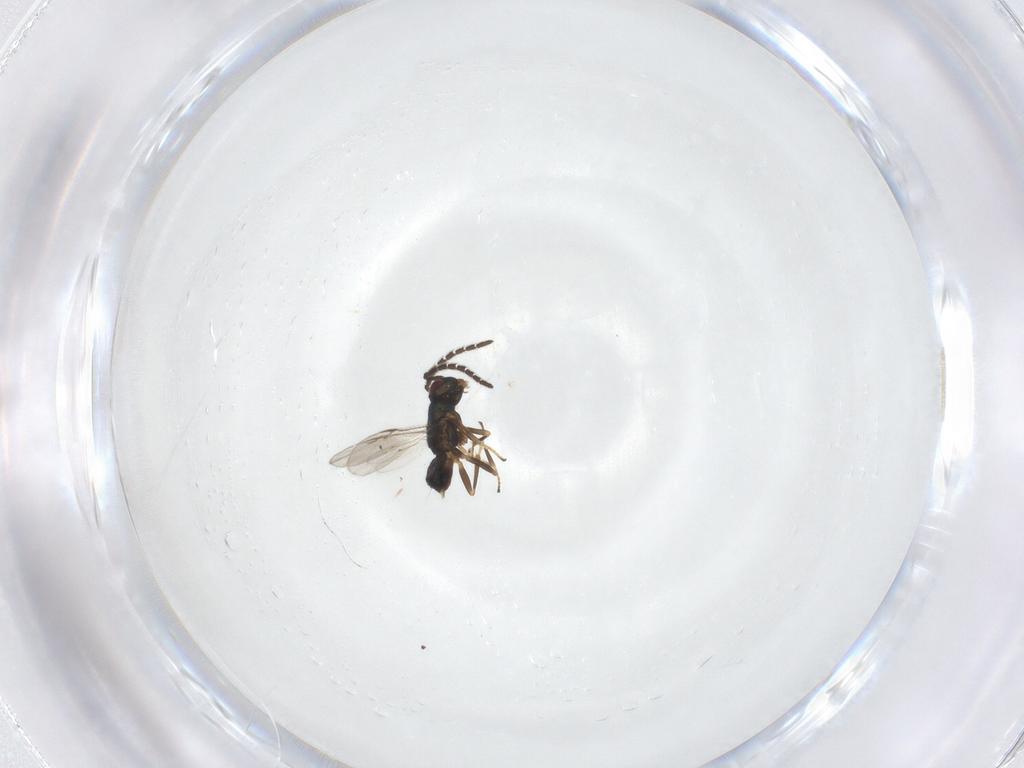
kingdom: Animalia
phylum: Arthropoda
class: Insecta
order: Hymenoptera
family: Encyrtidae
